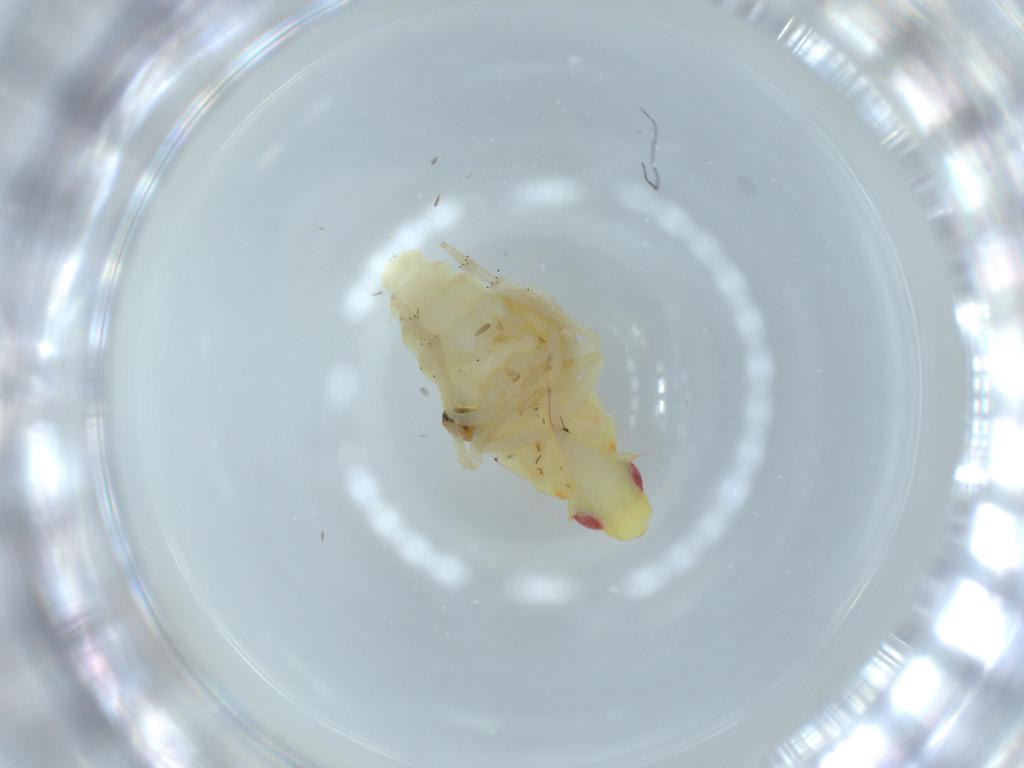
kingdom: Animalia
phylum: Arthropoda
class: Insecta
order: Hemiptera
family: Tropiduchidae
